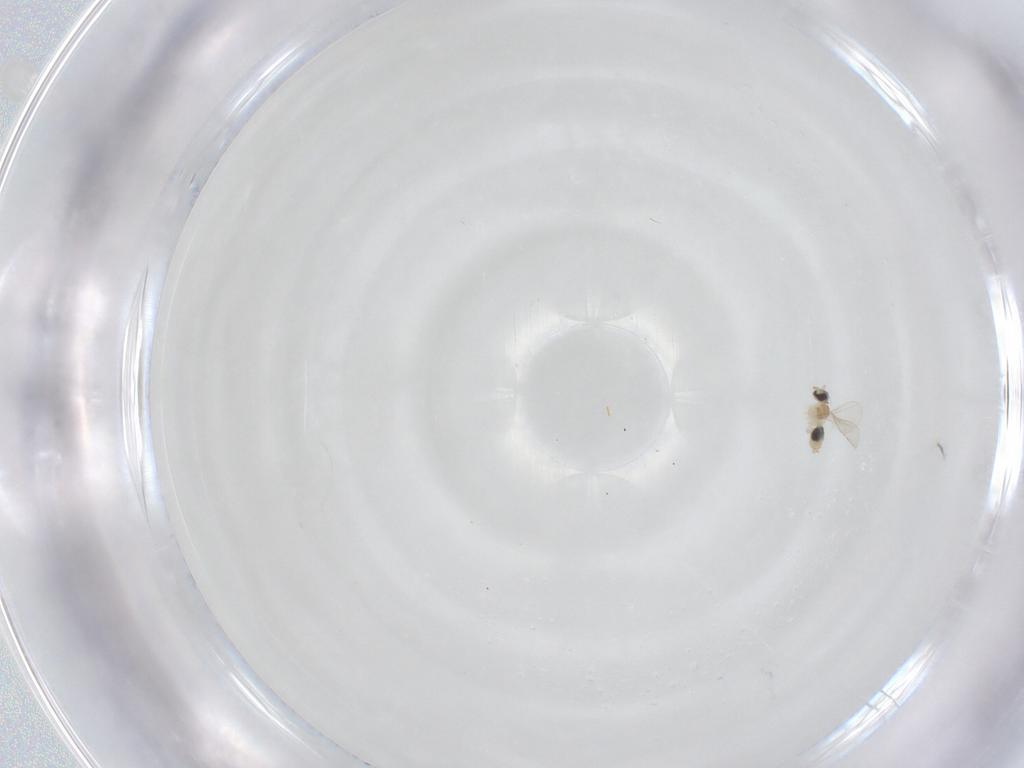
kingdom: Animalia
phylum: Arthropoda
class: Insecta
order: Diptera
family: Cecidomyiidae
